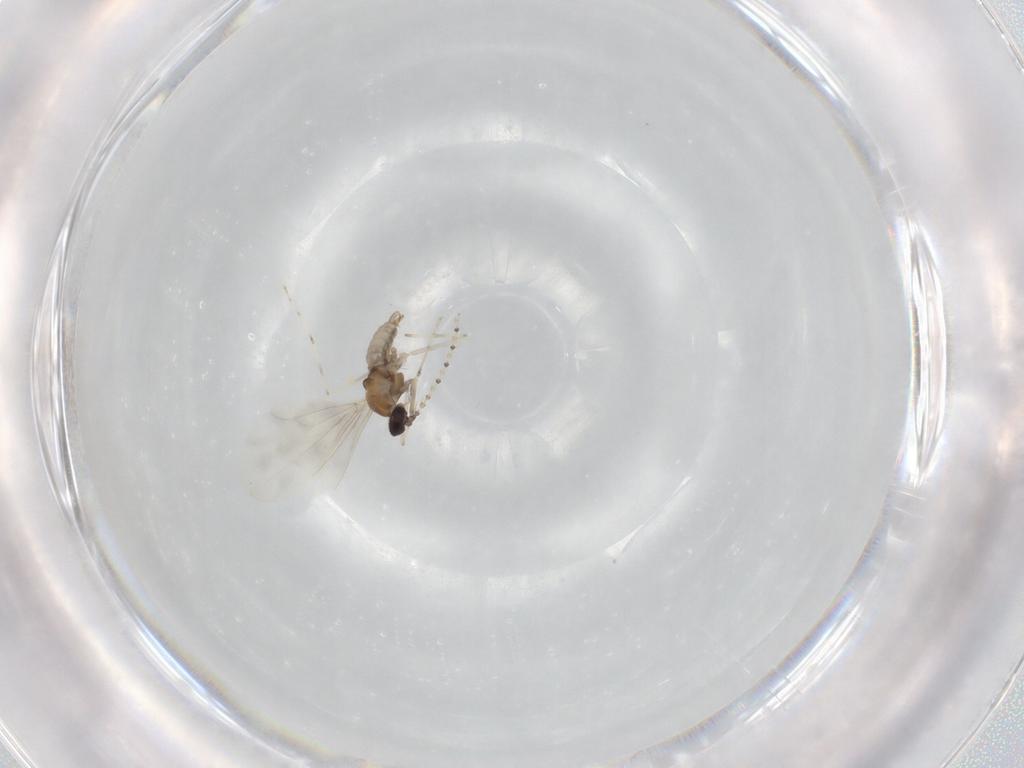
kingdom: Animalia
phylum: Arthropoda
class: Insecta
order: Diptera
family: Cecidomyiidae
